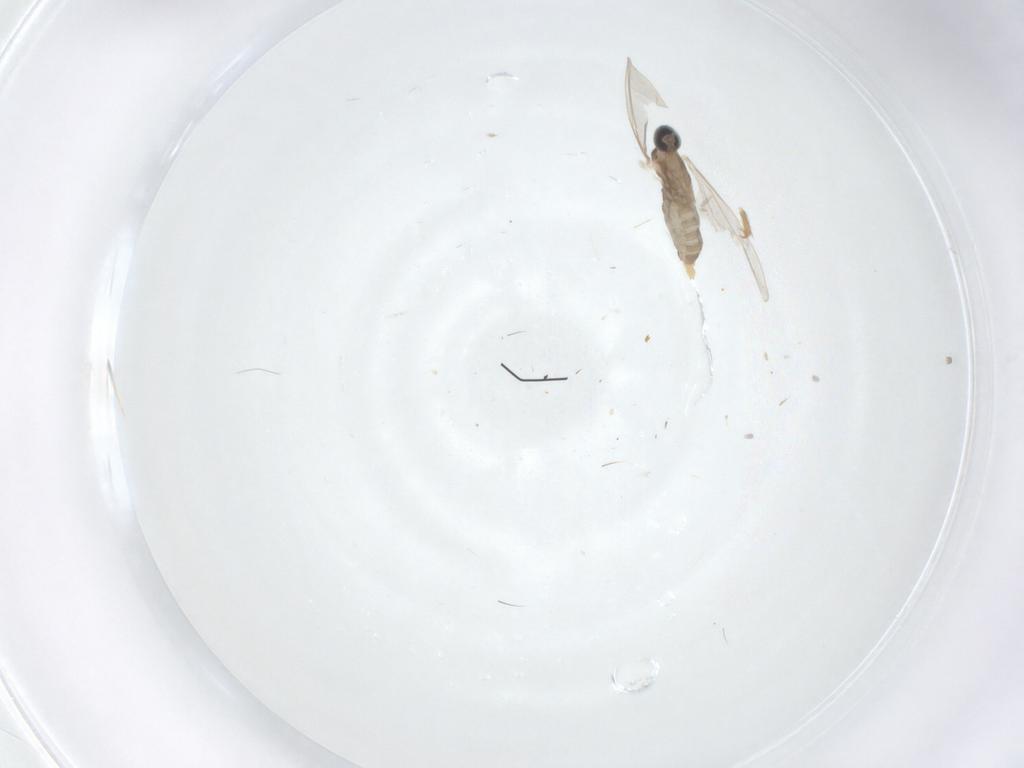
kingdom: Animalia
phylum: Arthropoda
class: Insecta
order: Diptera
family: Cecidomyiidae
